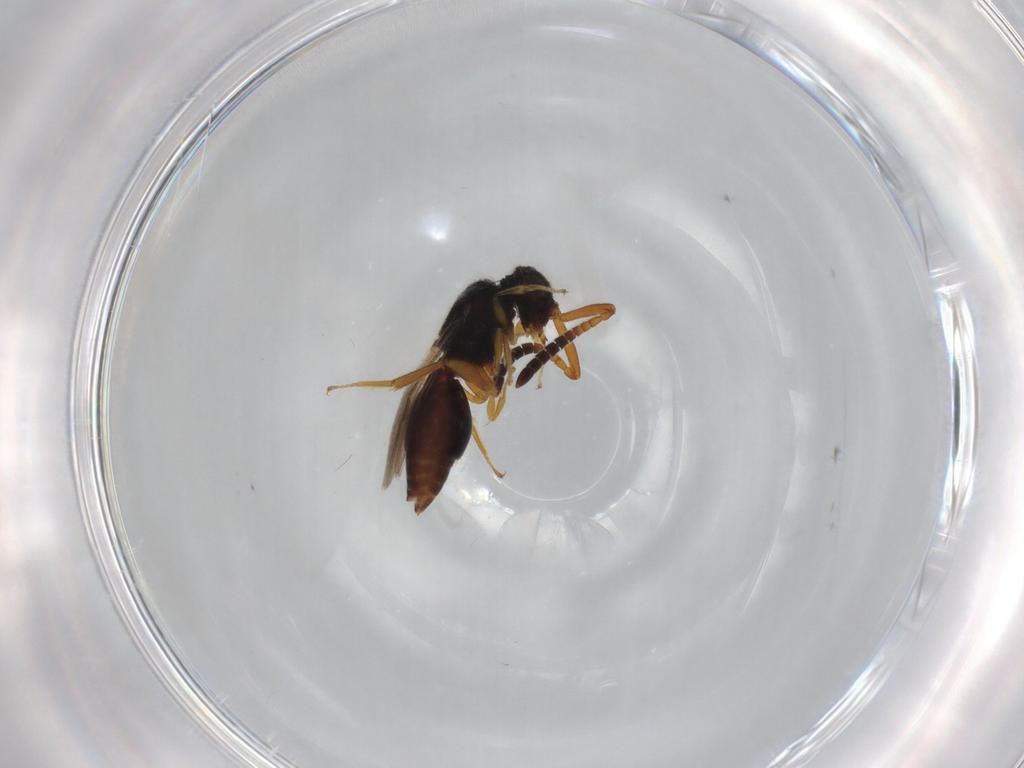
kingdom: Animalia
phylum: Arthropoda
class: Insecta
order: Hymenoptera
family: Megaspilidae
